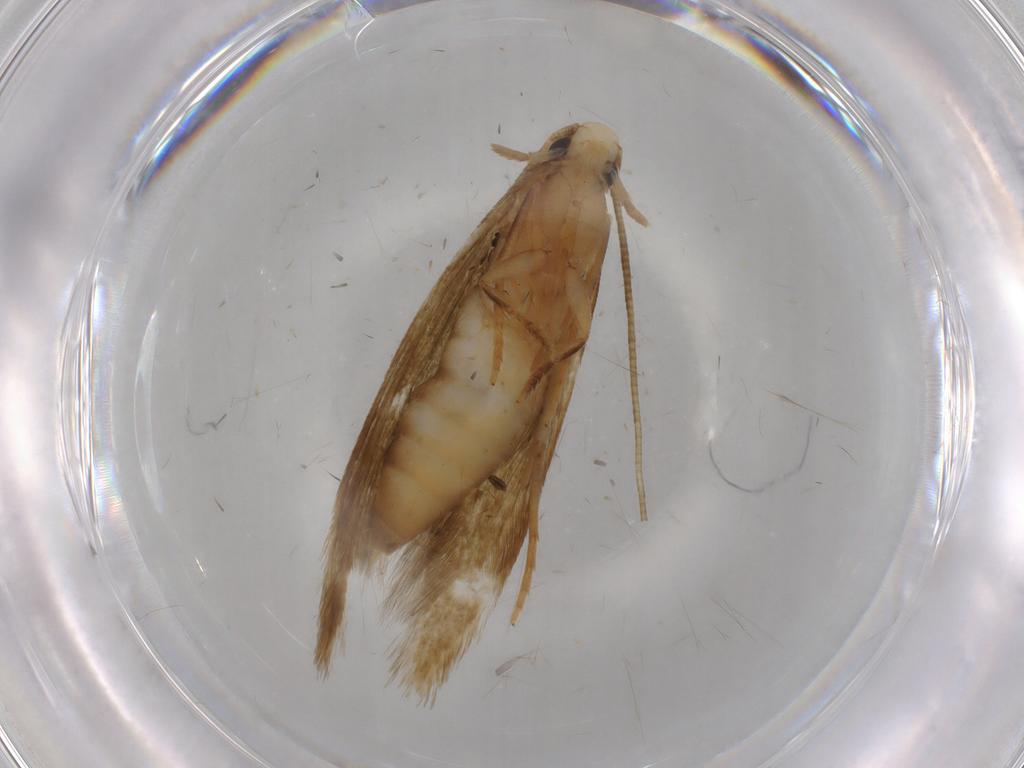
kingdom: Animalia
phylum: Arthropoda
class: Insecta
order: Lepidoptera
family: Tineidae
